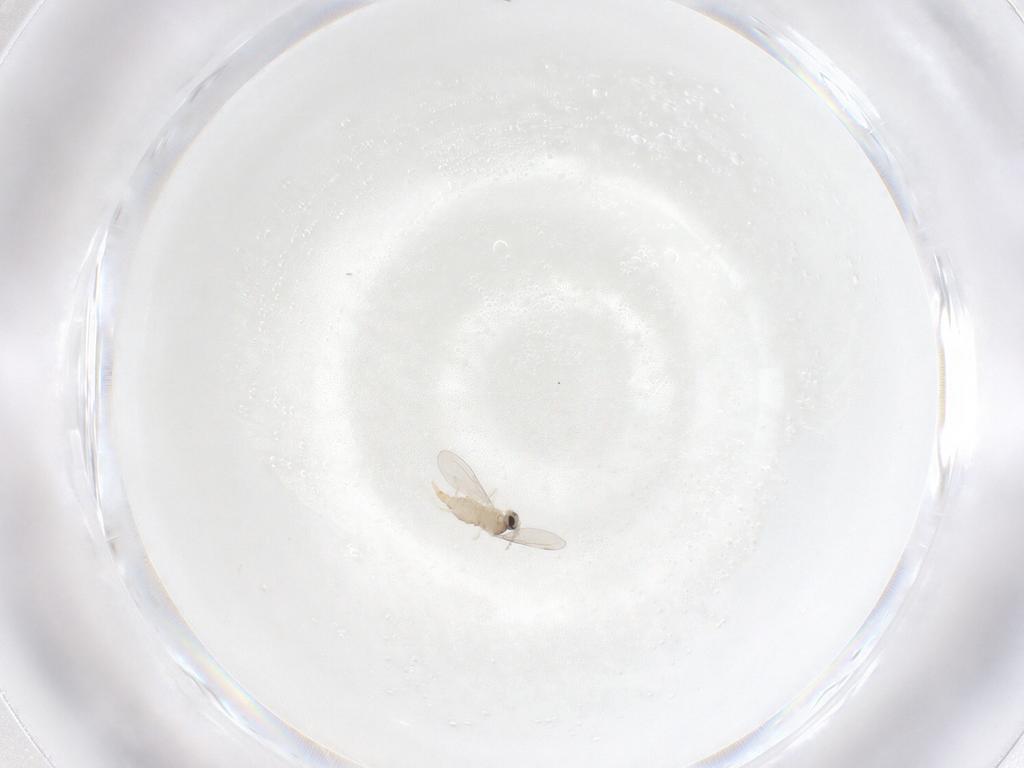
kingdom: Animalia
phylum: Arthropoda
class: Insecta
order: Diptera
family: Cecidomyiidae
